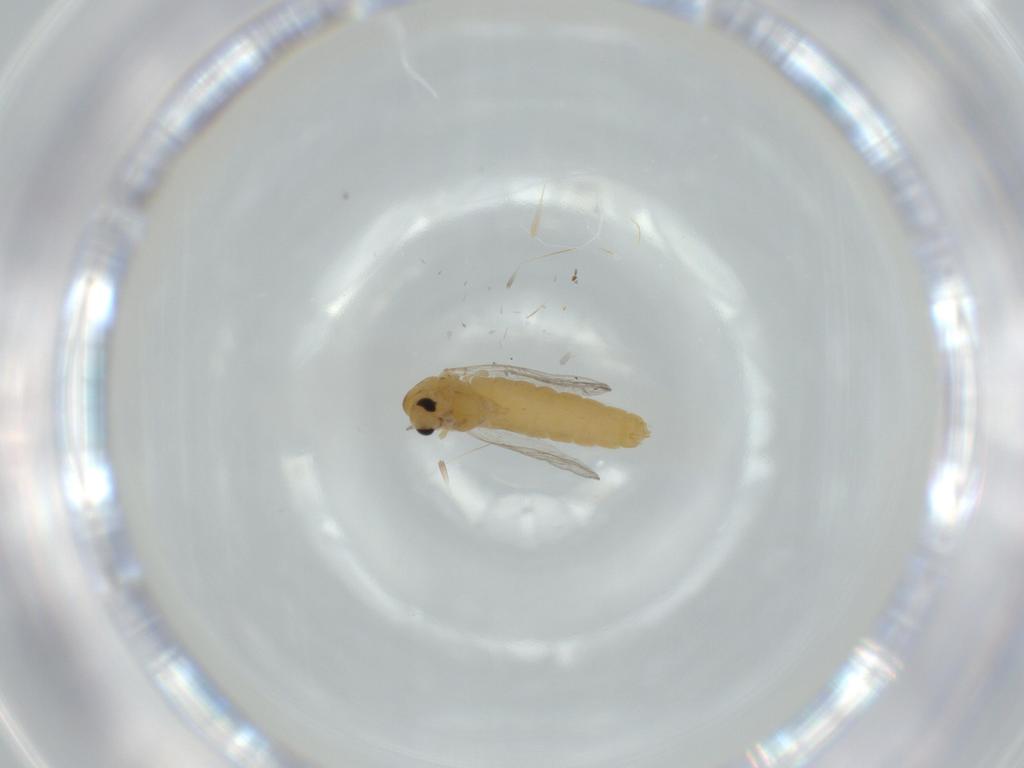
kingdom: Animalia
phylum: Arthropoda
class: Insecta
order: Diptera
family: Chironomidae
